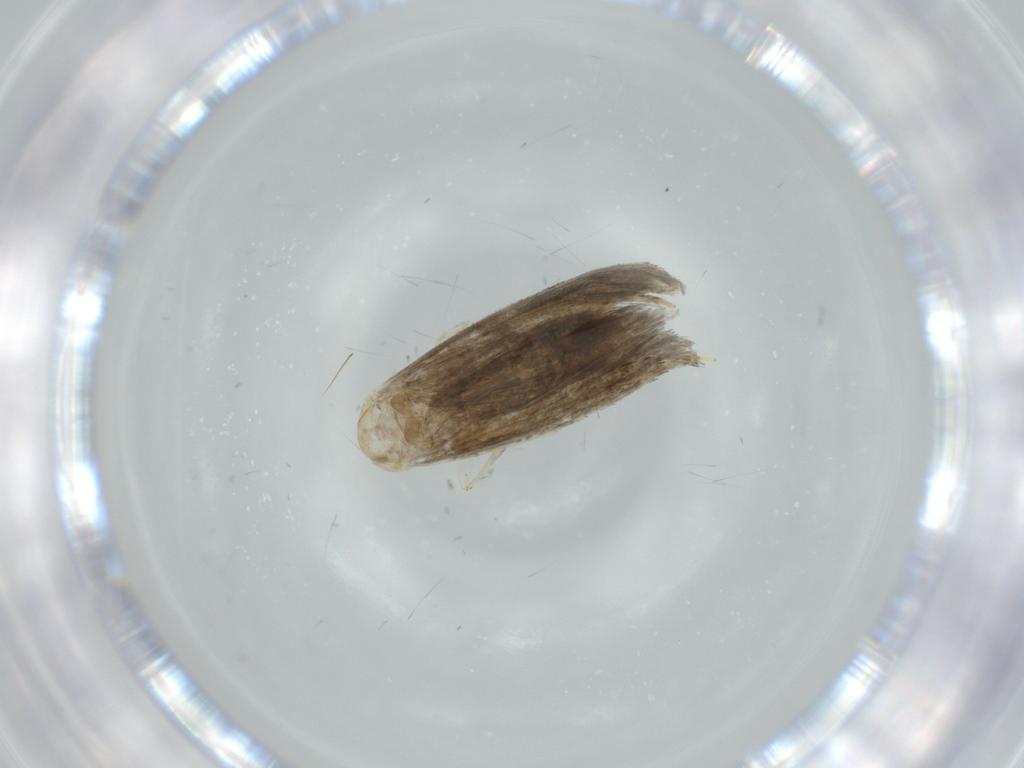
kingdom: Animalia
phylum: Arthropoda
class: Insecta
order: Lepidoptera
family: Tineidae
